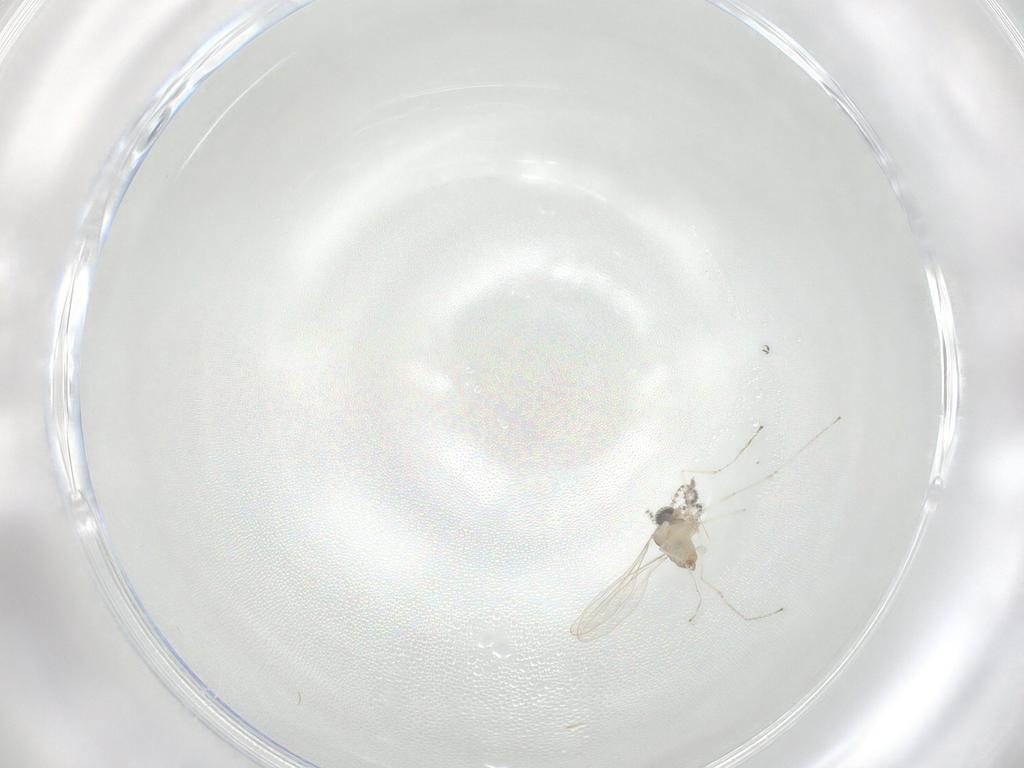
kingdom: Animalia
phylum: Arthropoda
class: Insecta
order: Diptera
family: Cecidomyiidae
